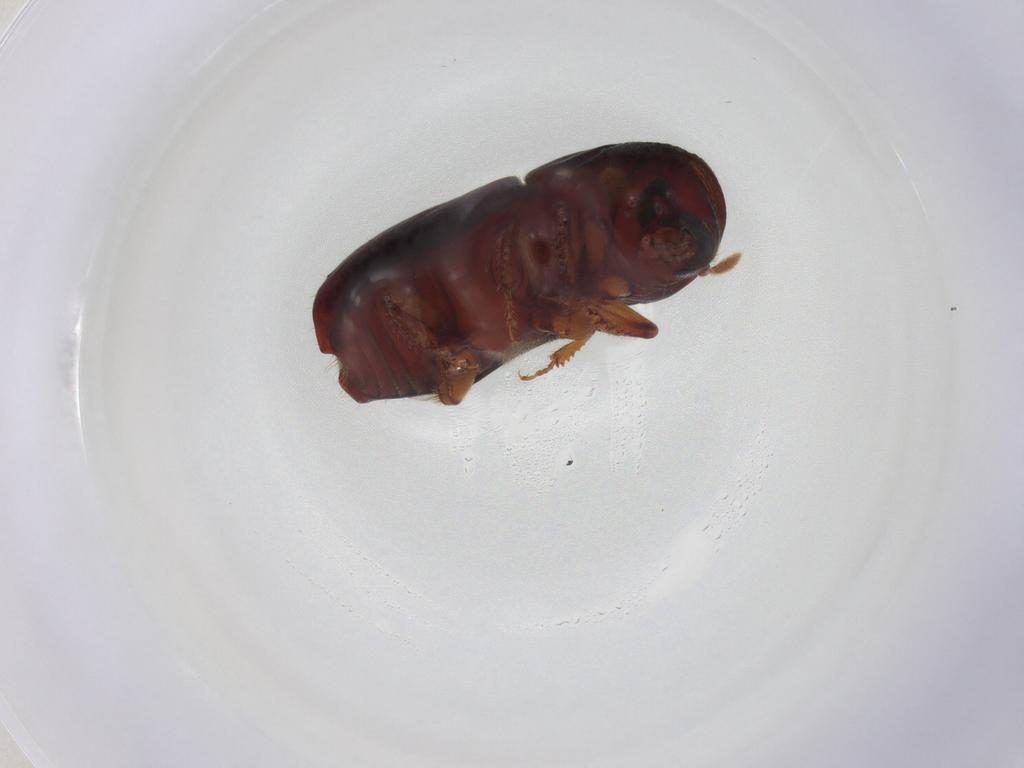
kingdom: Animalia
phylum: Arthropoda
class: Insecta
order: Coleoptera
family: Curculionidae
